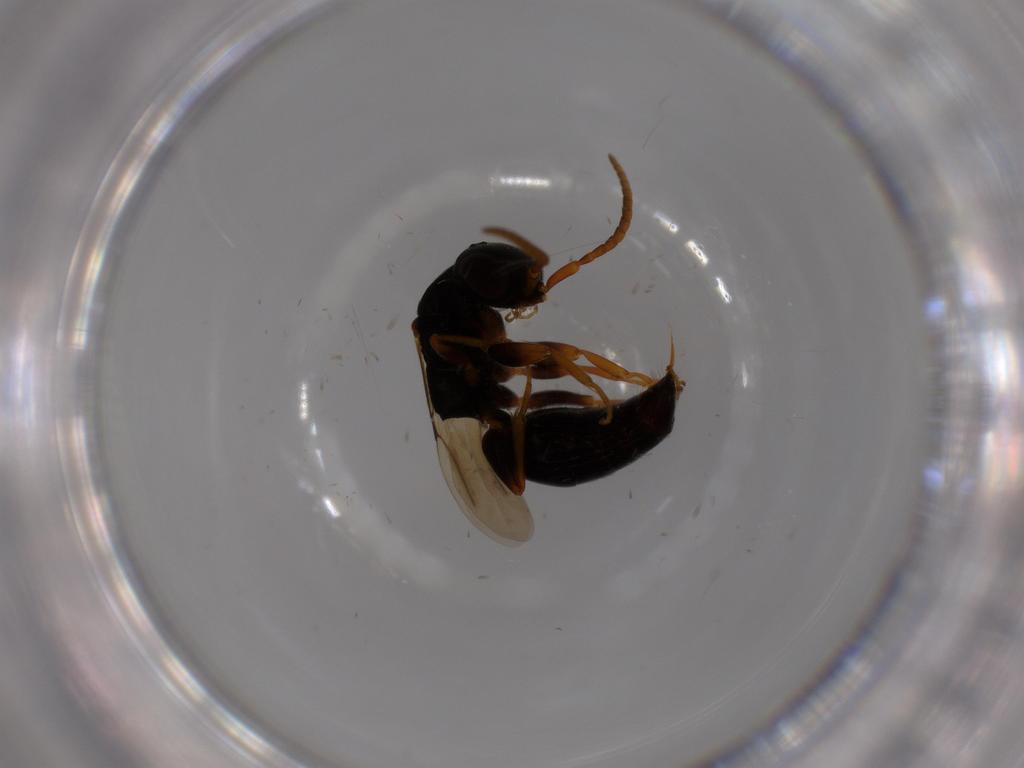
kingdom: Animalia
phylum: Arthropoda
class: Insecta
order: Hymenoptera
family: Bethylidae
